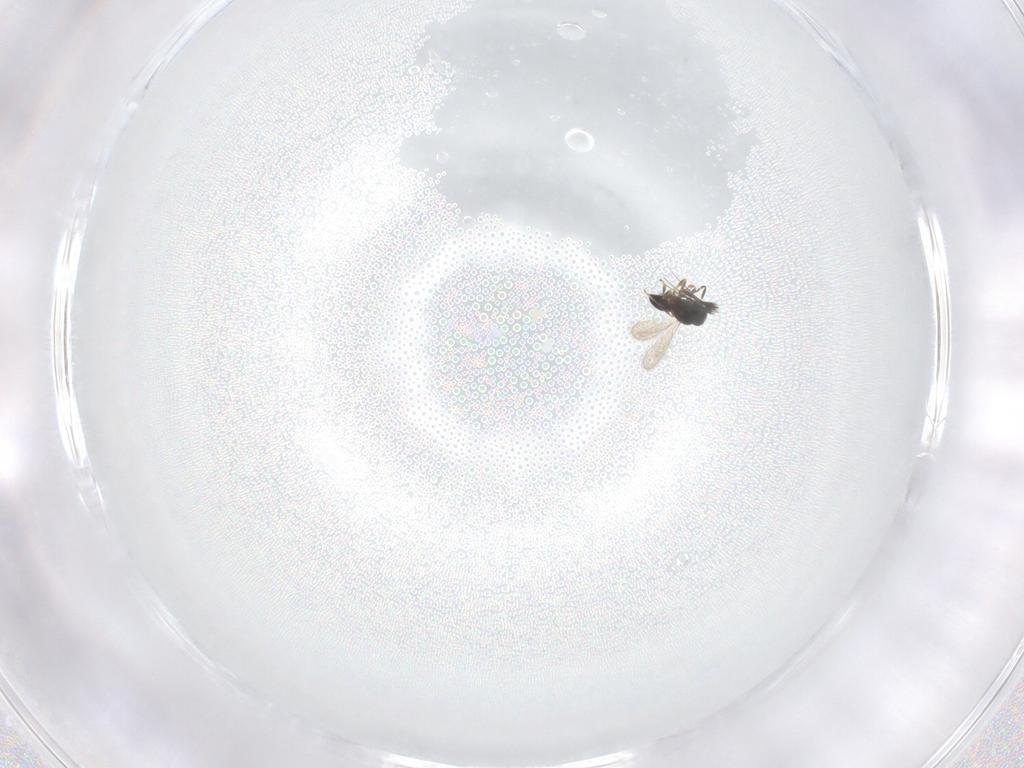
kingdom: Animalia
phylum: Arthropoda
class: Insecta
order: Hymenoptera
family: Scelionidae
